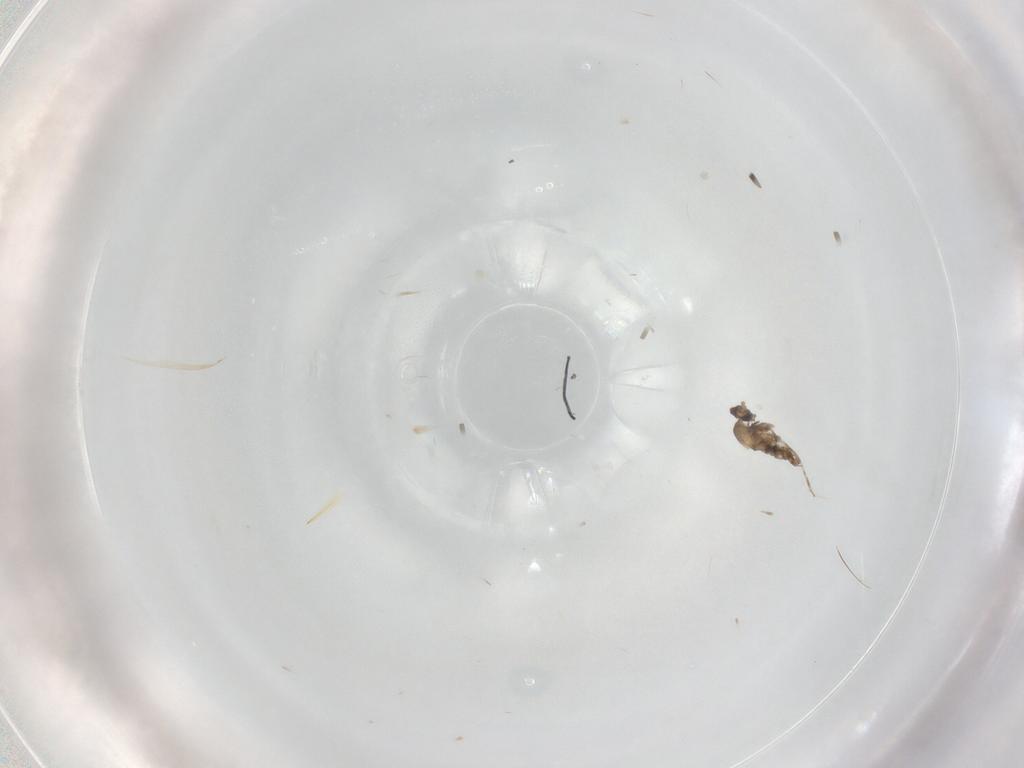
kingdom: Animalia
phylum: Arthropoda
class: Insecta
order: Diptera
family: Cecidomyiidae
